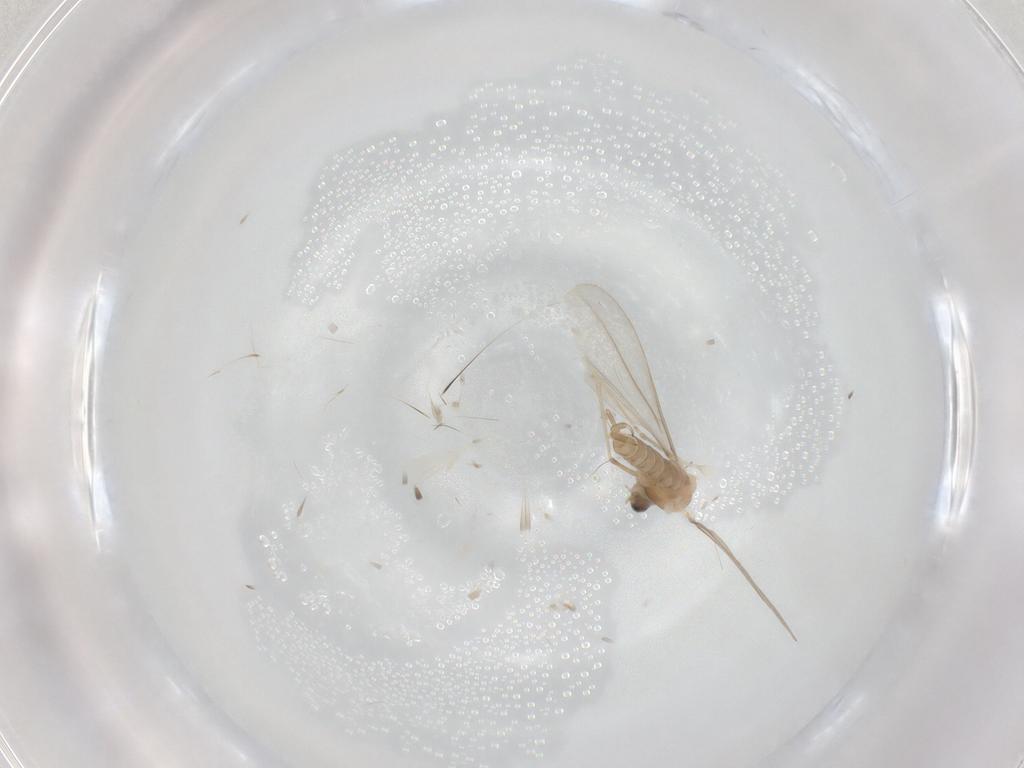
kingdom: Animalia
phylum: Arthropoda
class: Insecta
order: Diptera
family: Cecidomyiidae
